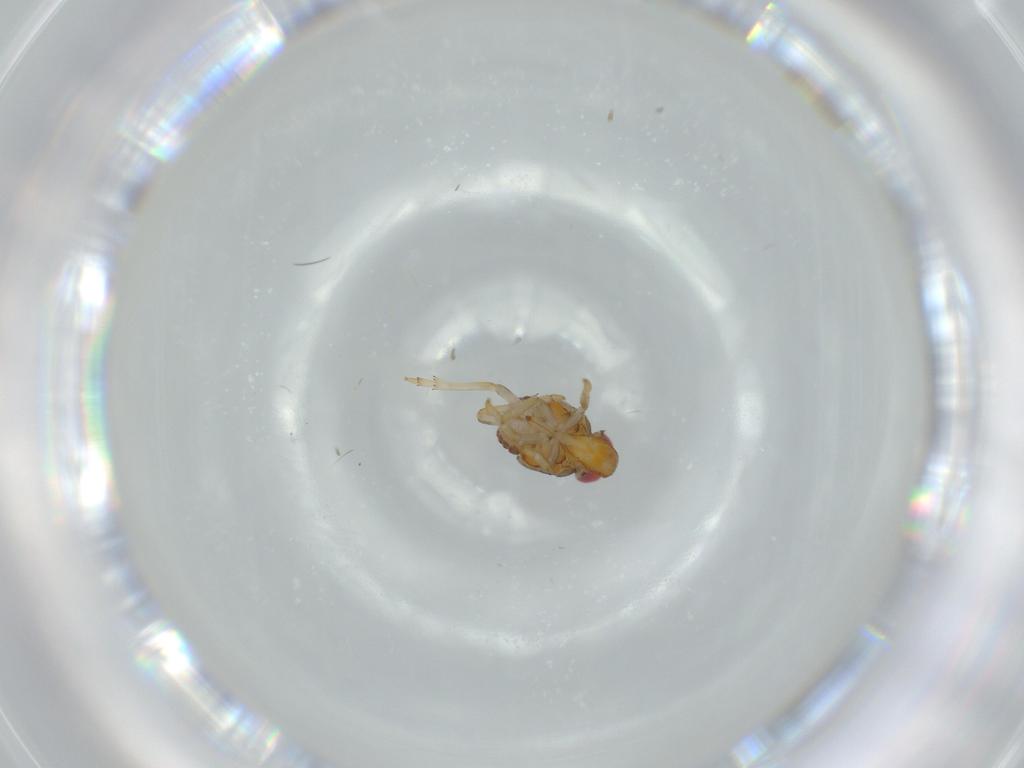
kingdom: Animalia
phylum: Arthropoda
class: Insecta
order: Hemiptera
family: Issidae
